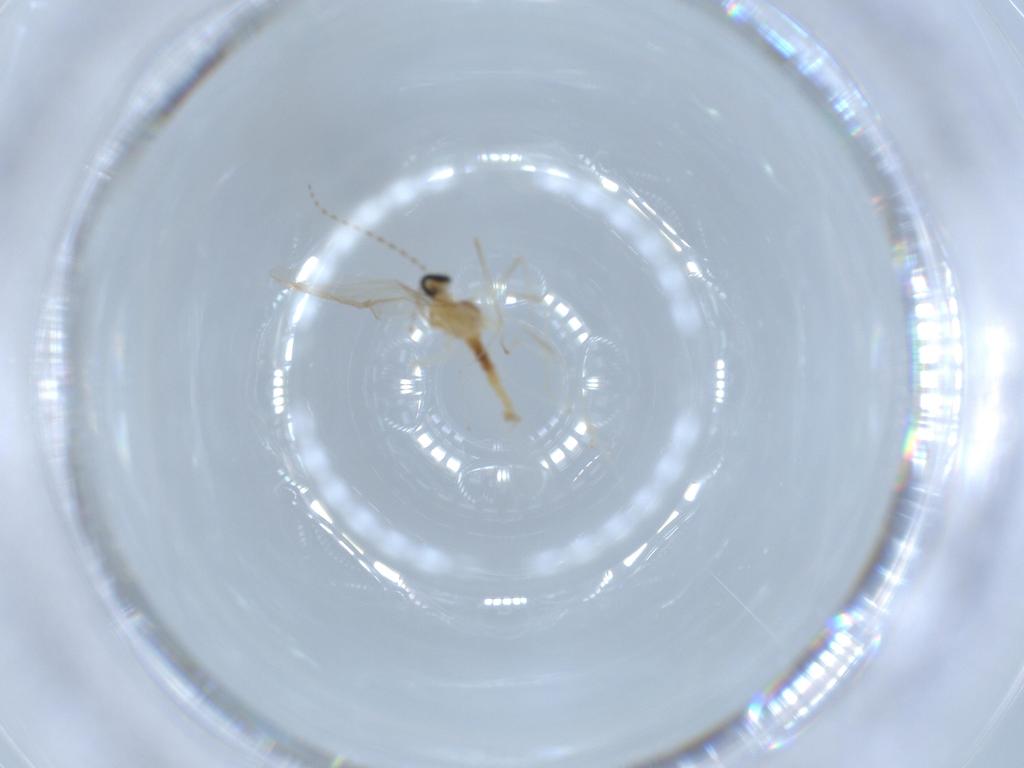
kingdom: Animalia
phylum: Arthropoda
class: Insecta
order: Diptera
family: Cecidomyiidae
